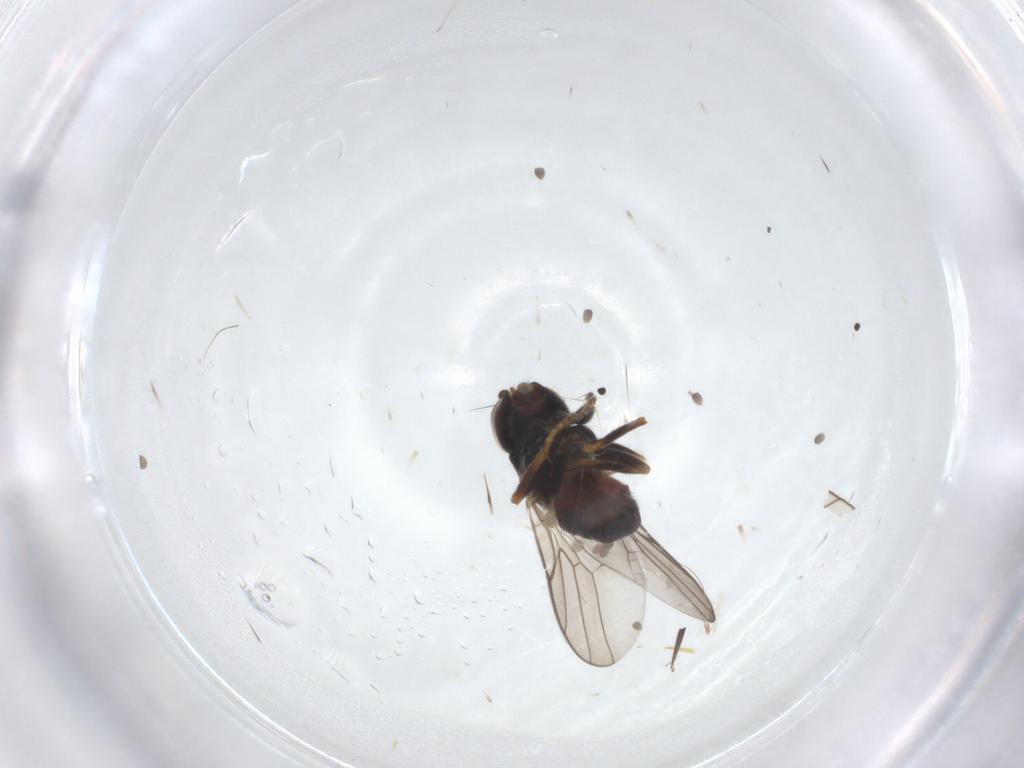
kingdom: Animalia
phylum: Arthropoda
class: Insecta
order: Diptera
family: Chloropidae
